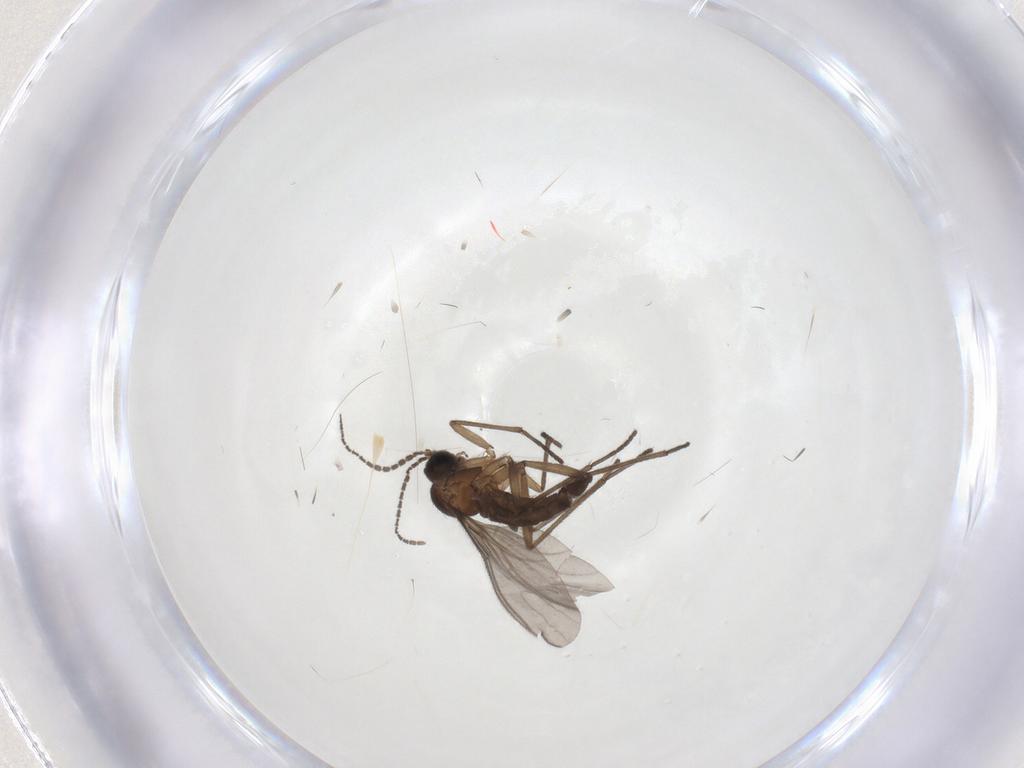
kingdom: Animalia
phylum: Arthropoda
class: Insecta
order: Diptera
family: Sciaridae
